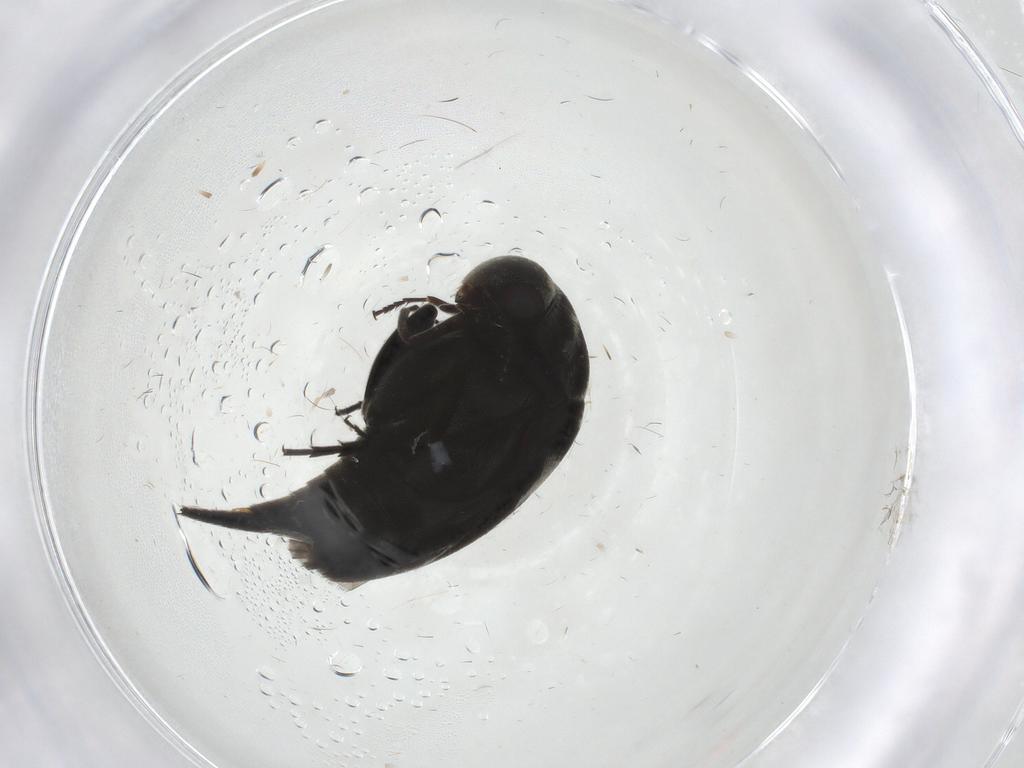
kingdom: Animalia
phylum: Arthropoda
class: Insecta
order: Coleoptera
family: Mordellidae
